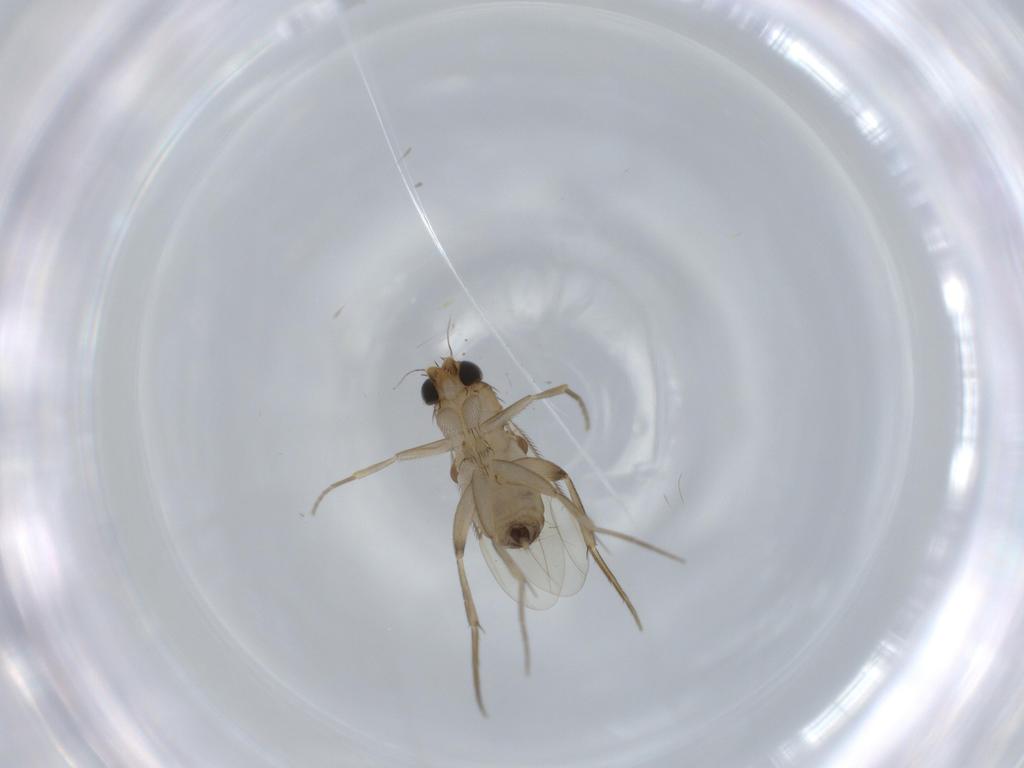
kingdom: Animalia
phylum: Arthropoda
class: Insecta
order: Diptera
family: Phoridae
